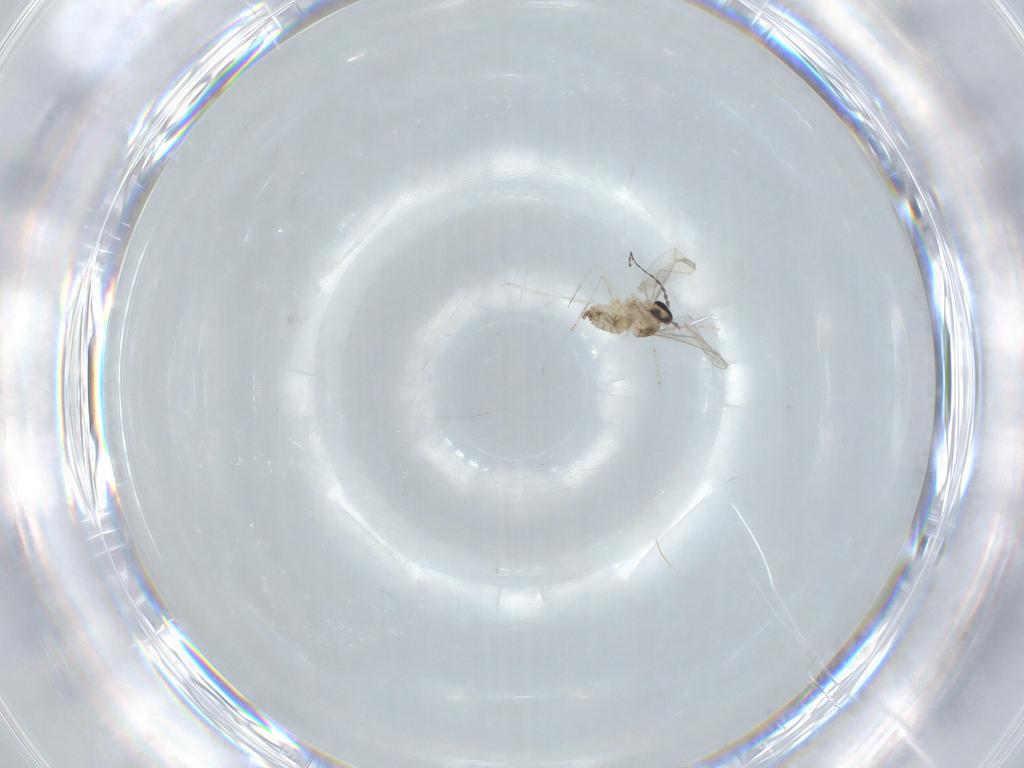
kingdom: Animalia
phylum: Arthropoda
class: Insecta
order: Diptera
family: Cecidomyiidae
